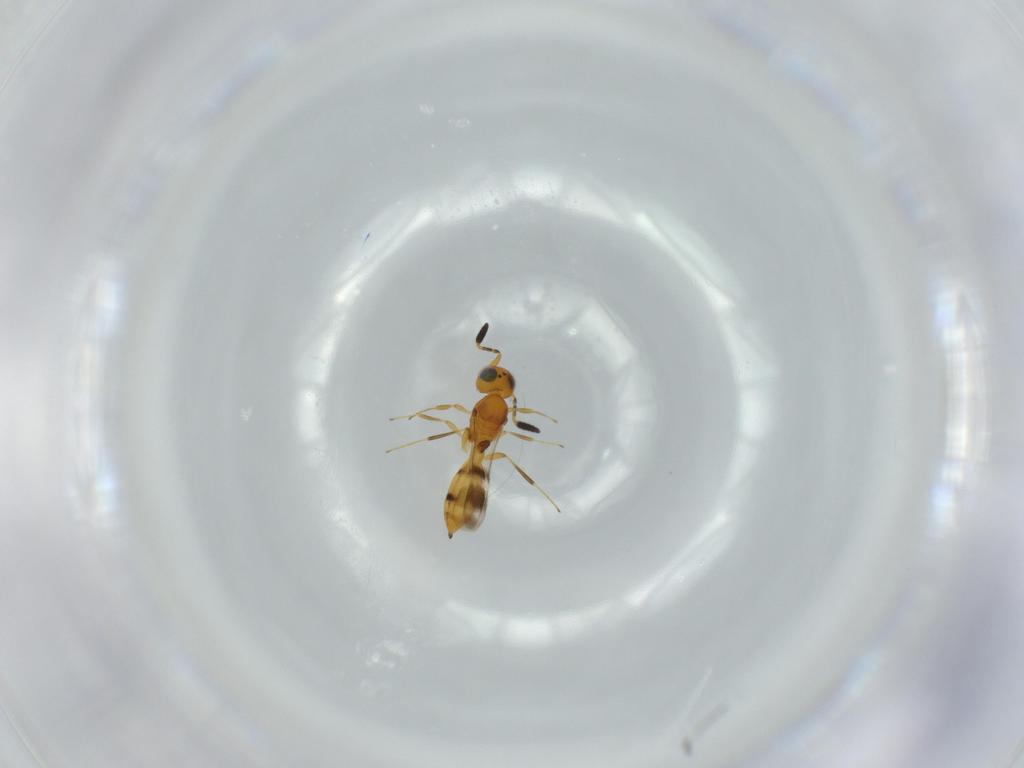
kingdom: Animalia
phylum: Arthropoda
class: Insecta
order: Hymenoptera
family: Scelionidae
